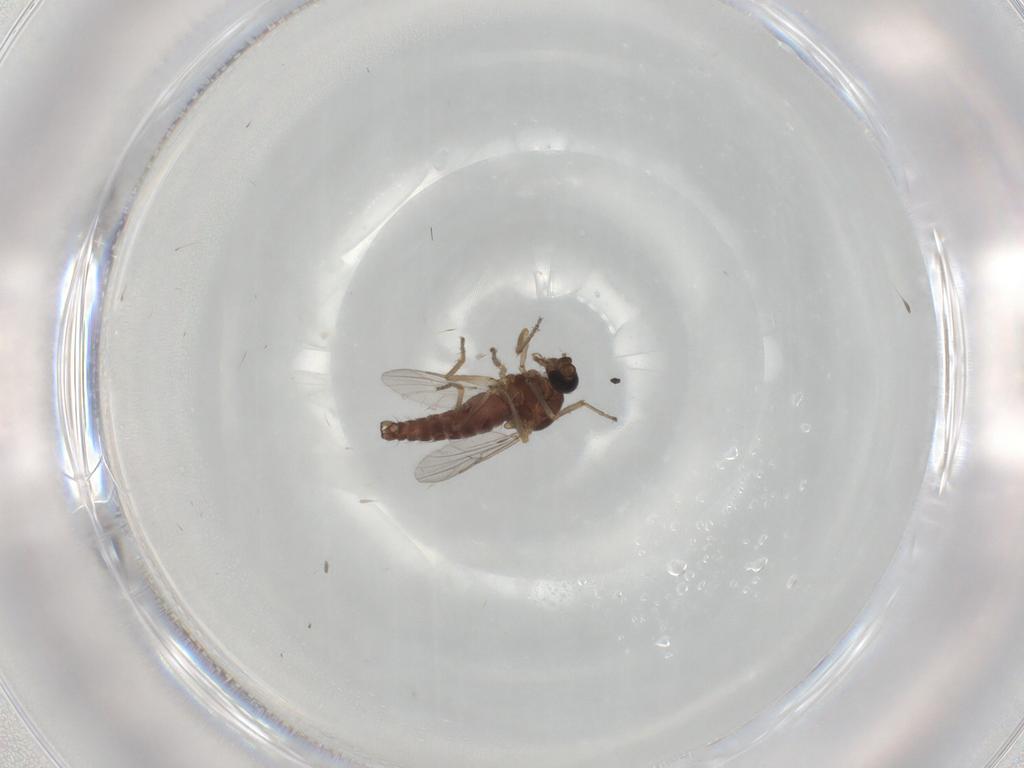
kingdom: Animalia
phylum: Arthropoda
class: Insecta
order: Diptera
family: Ceratopogonidae
